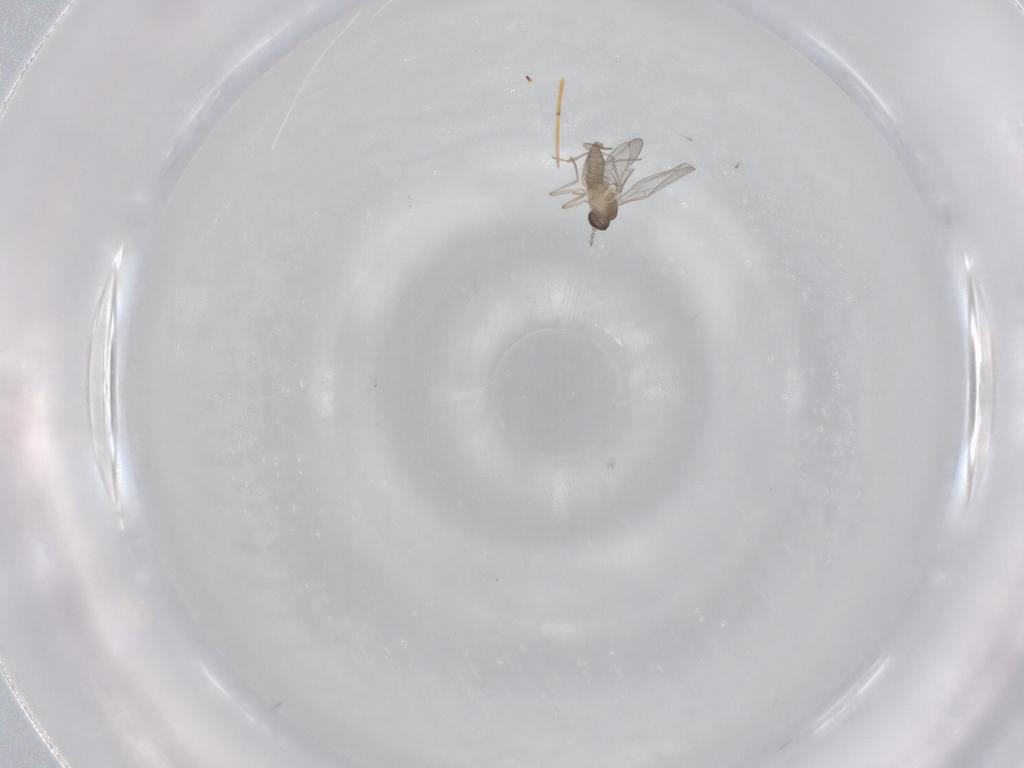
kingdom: Animalia
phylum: Arthropoda
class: Insecta
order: Diptera
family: Cecidomyiidae
